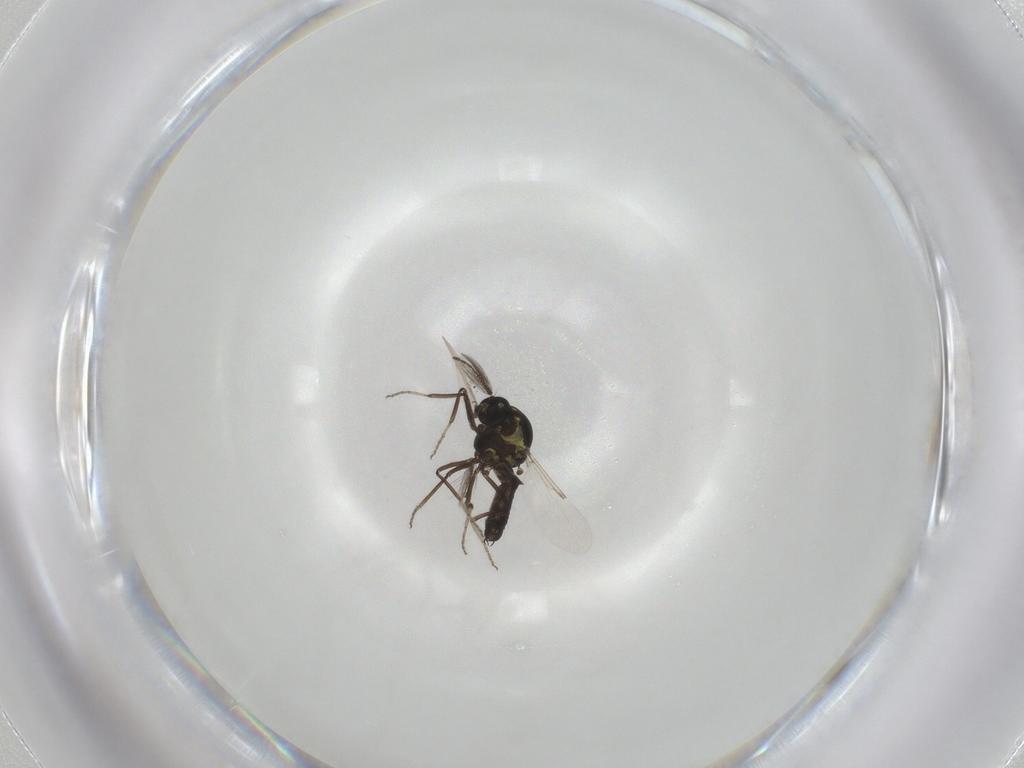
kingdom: Animalia
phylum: Arthropoda
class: Insecta
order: Diptera
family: Ceratopogonidae
